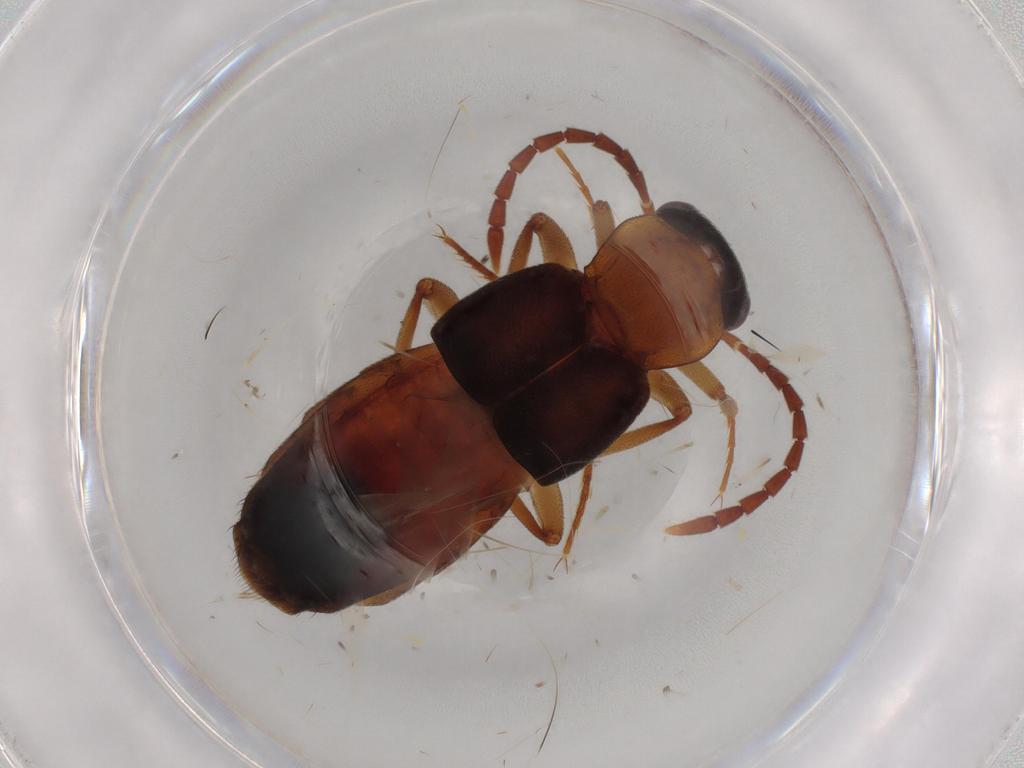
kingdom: Animalia
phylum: Arthropoda
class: Insecta
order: Coleoptera
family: Staphylinidae
